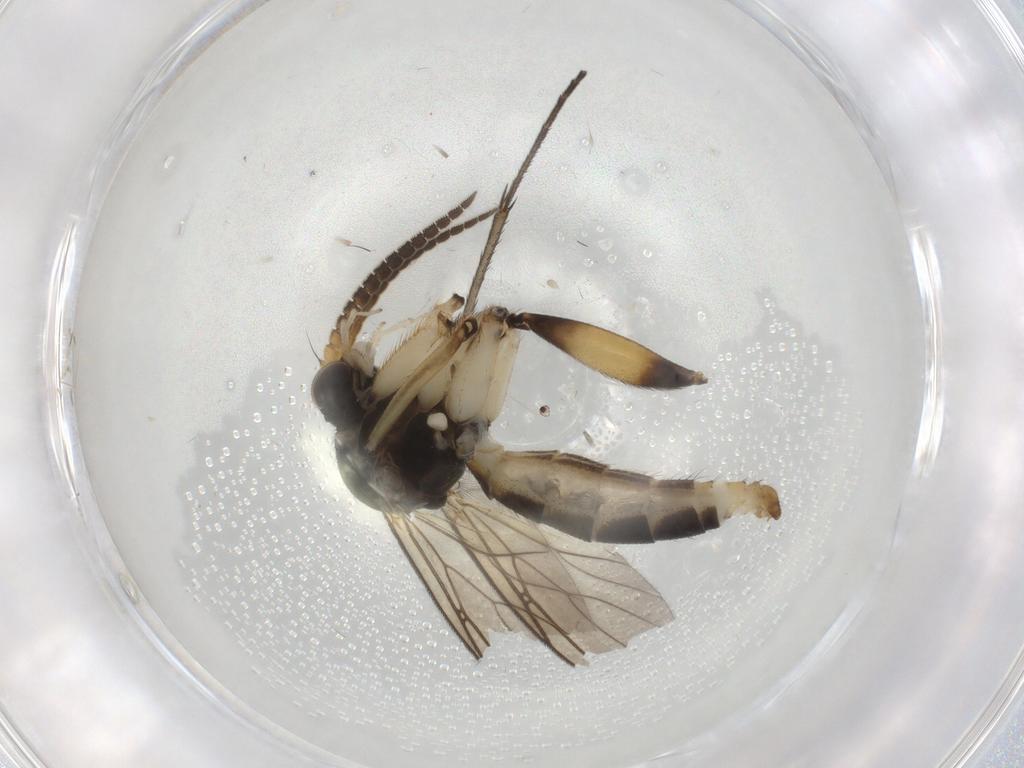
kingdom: Animalia
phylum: Arthropoda
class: Insecta
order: Diptera
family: Mycetophilidae
